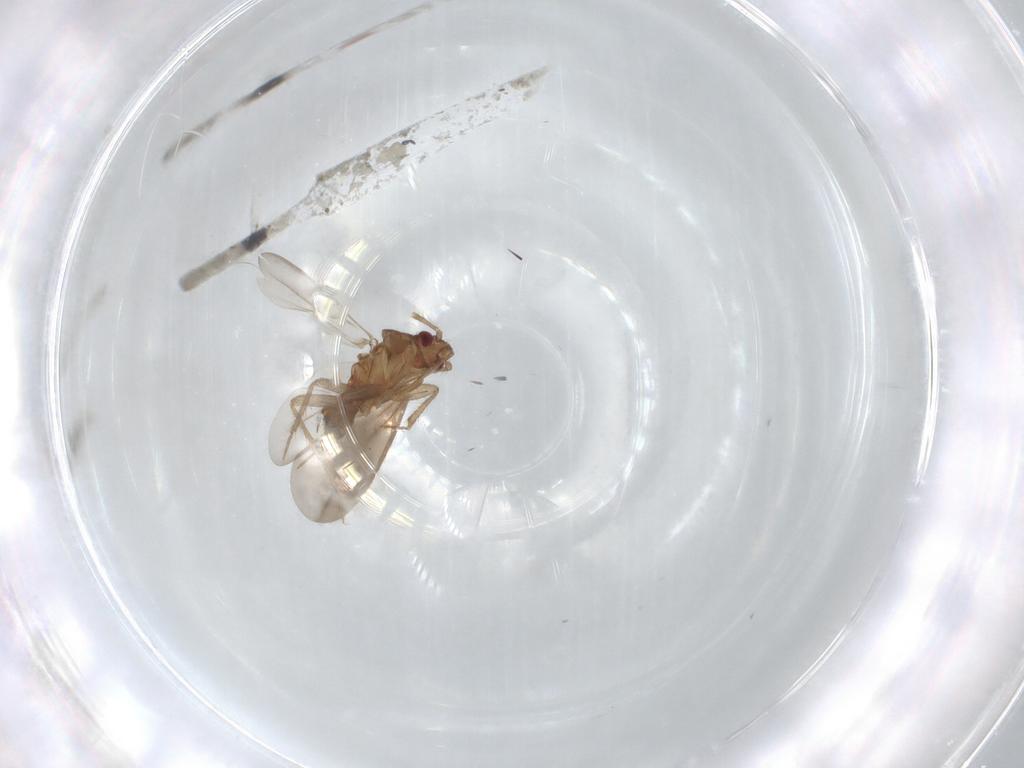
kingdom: Animalia
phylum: Arthropoda
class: Insecta
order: Hemiptera
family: Ceratocombidae
